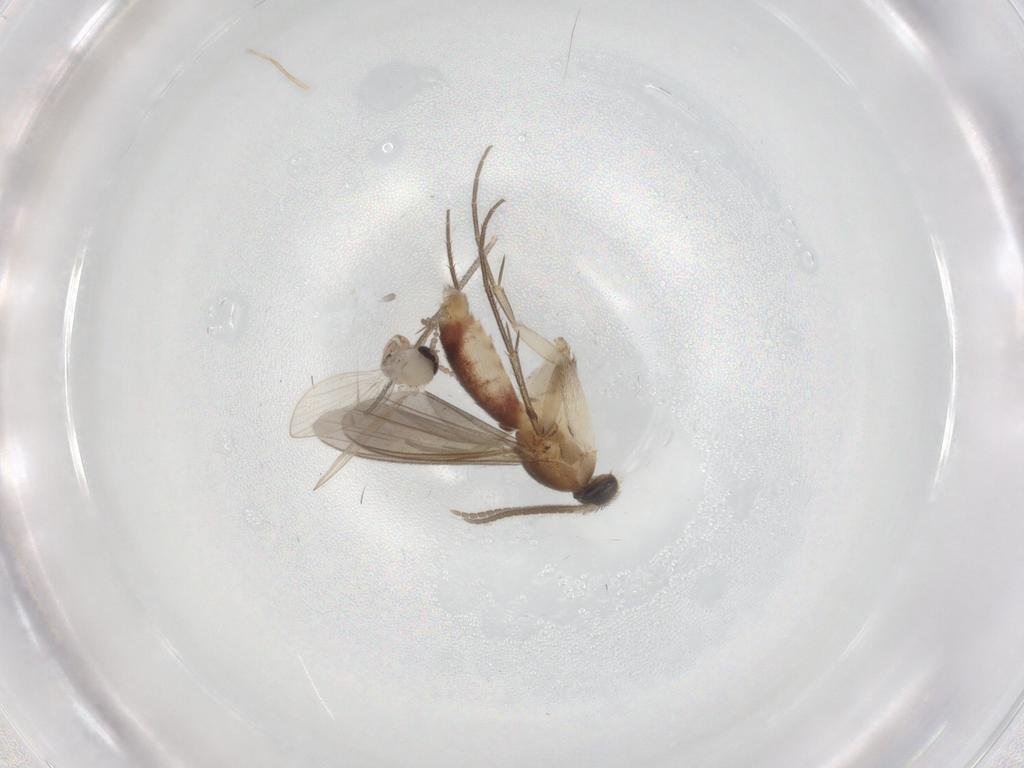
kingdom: Animalia
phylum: Arthropoda
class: Insecta
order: Diptera
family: Psychodidae
